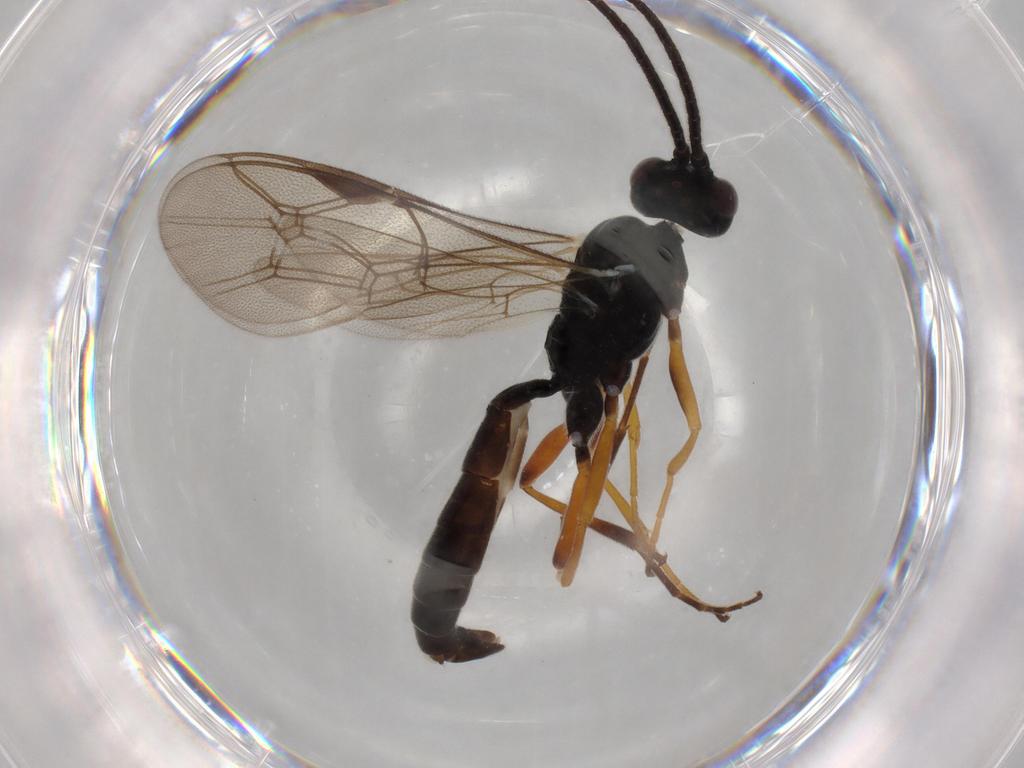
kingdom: Animalia
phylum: Arthropoda
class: Insecta
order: Hymenoptera
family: Ichneumonidae
